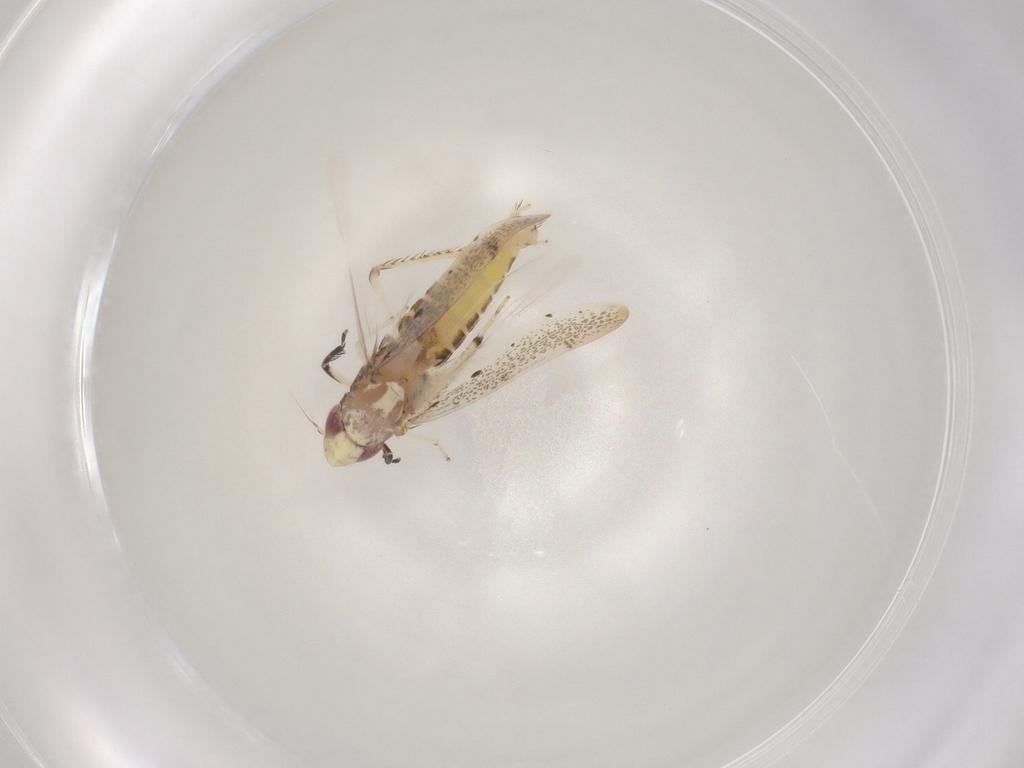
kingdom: Animalia
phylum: Arthropoda
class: Insecta
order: Hemiptera
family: Cicadellidae
